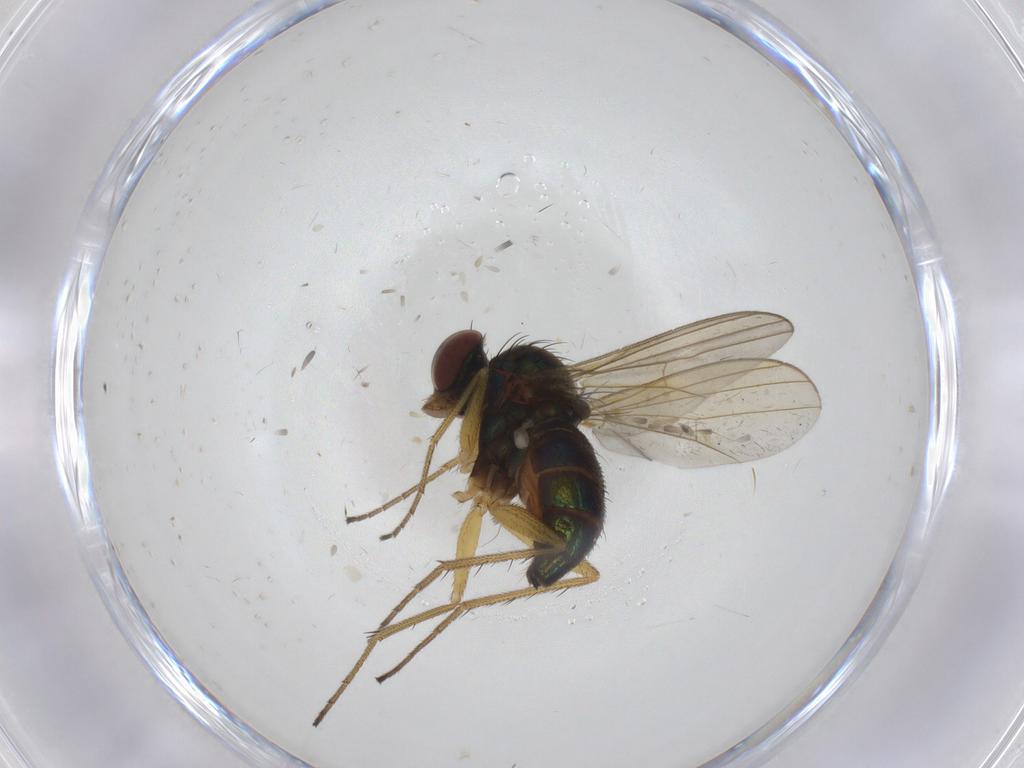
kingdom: Animalia
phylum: Arthropoda
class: Insecta
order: Diptera
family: Dolichopodidae
